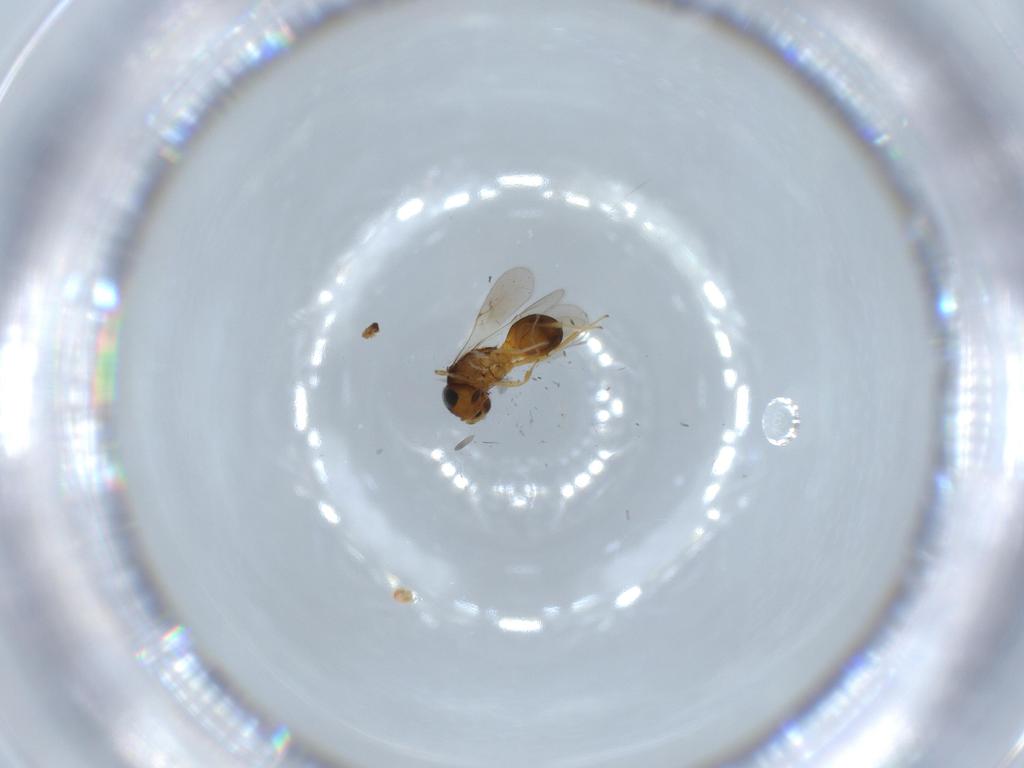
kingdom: Animalia
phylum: Arthropoda
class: Insecta
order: Hymenoptera
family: Scelionidae
